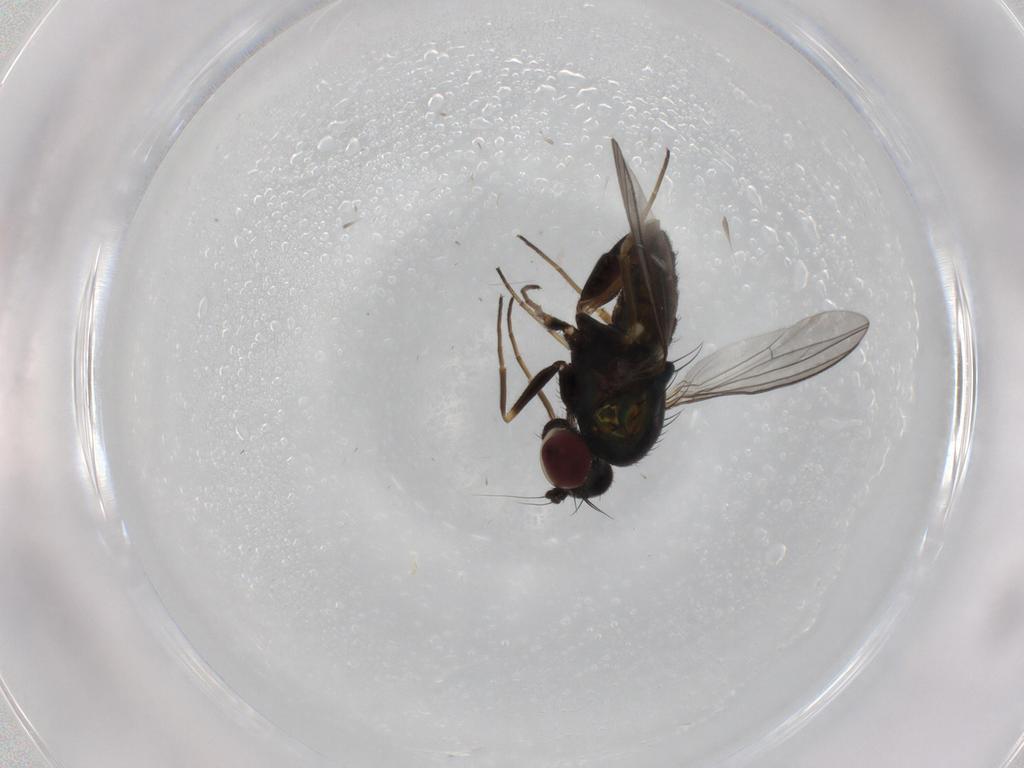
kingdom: Animalia
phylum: Arthropoda
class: Insecta
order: Diptera
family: Dolichopodidae
